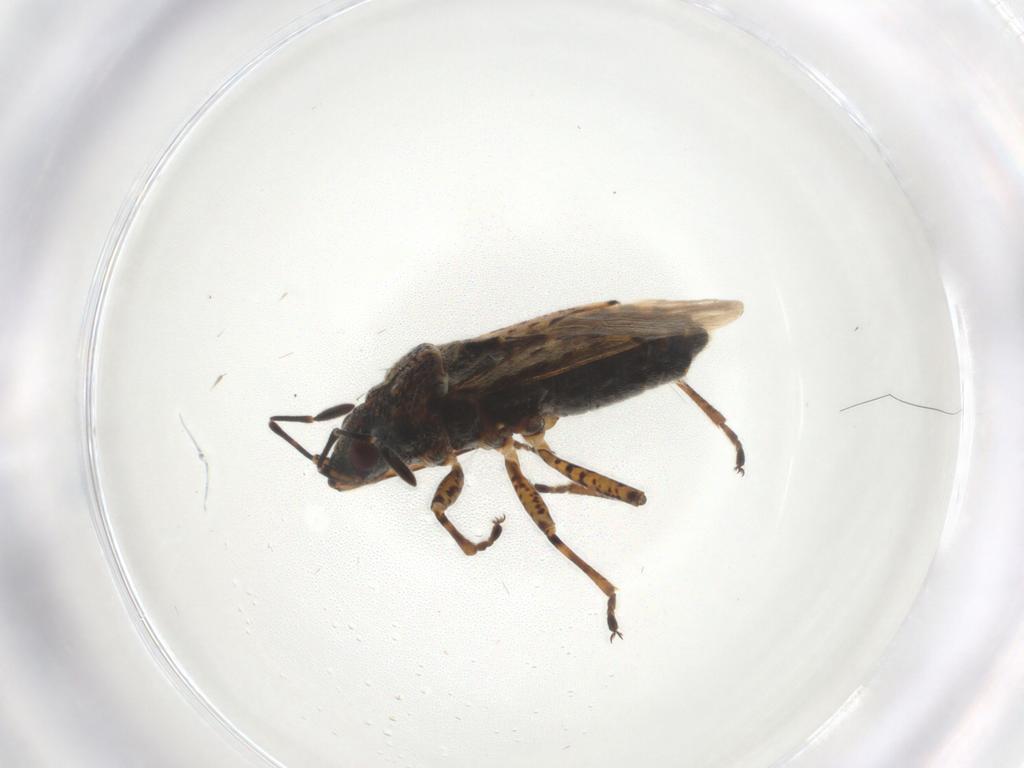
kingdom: Animalia
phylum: Arthropoda
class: Insecta
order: Hemiptera
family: Lygaeidae
